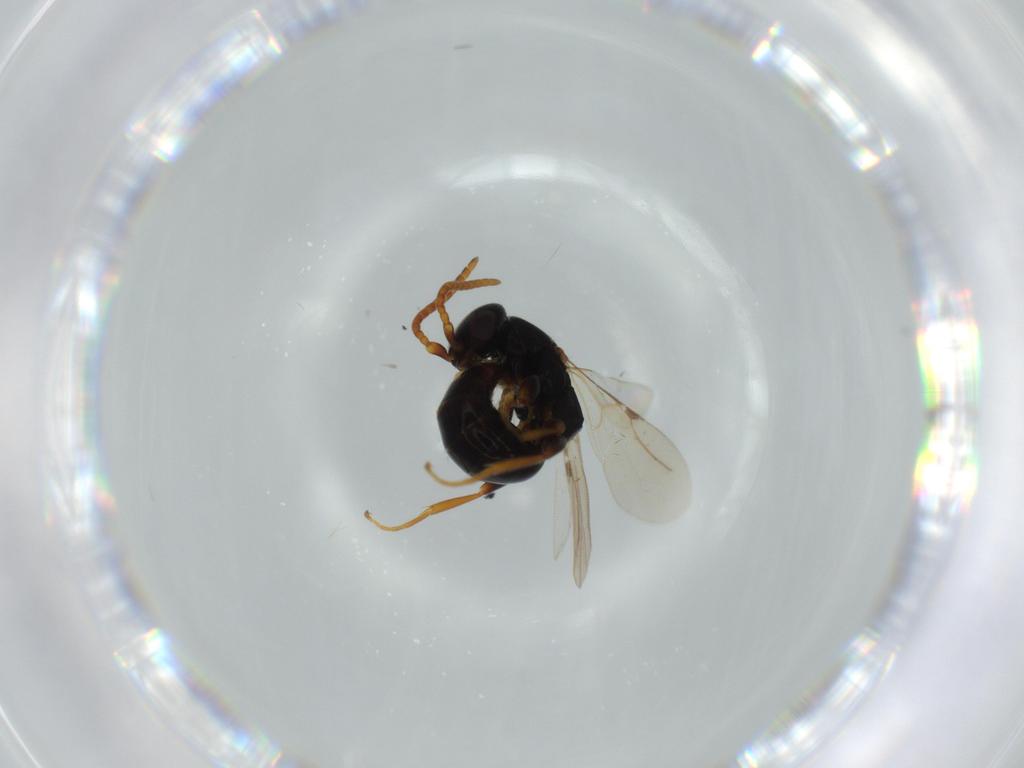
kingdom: Animalia
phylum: Arthropoda
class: Insecta
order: Hymenoptera
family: Bethylidae
